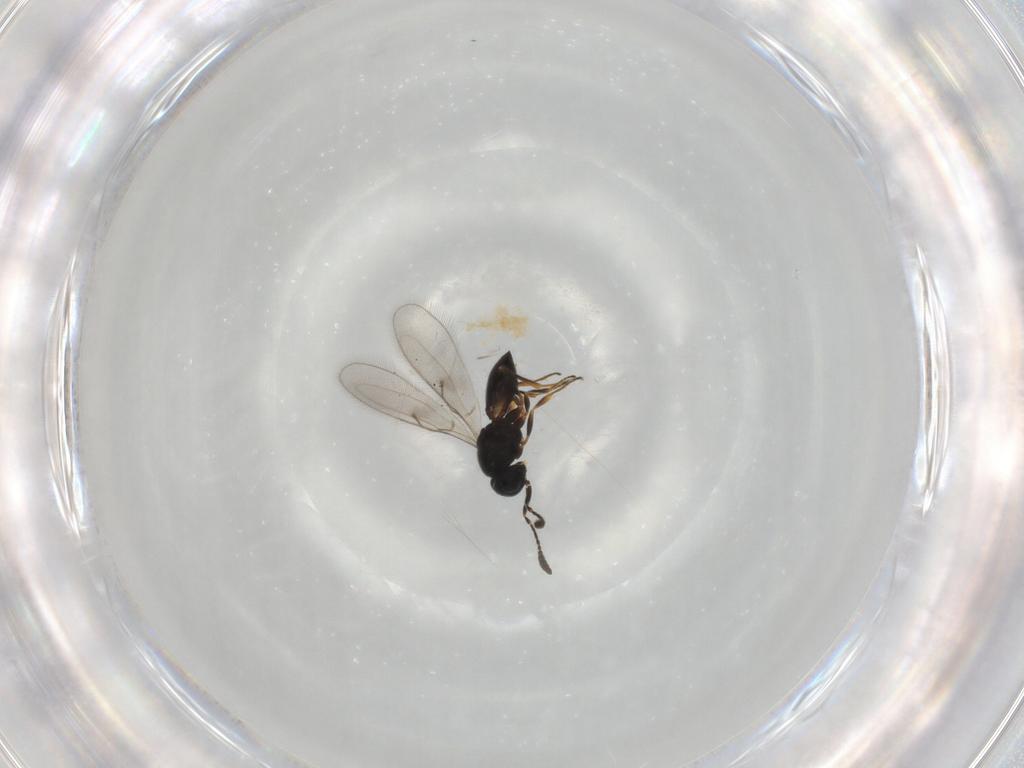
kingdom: Animalia
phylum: Arthropoda
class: Insecta
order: Hymenoptera
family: Scelionidae
